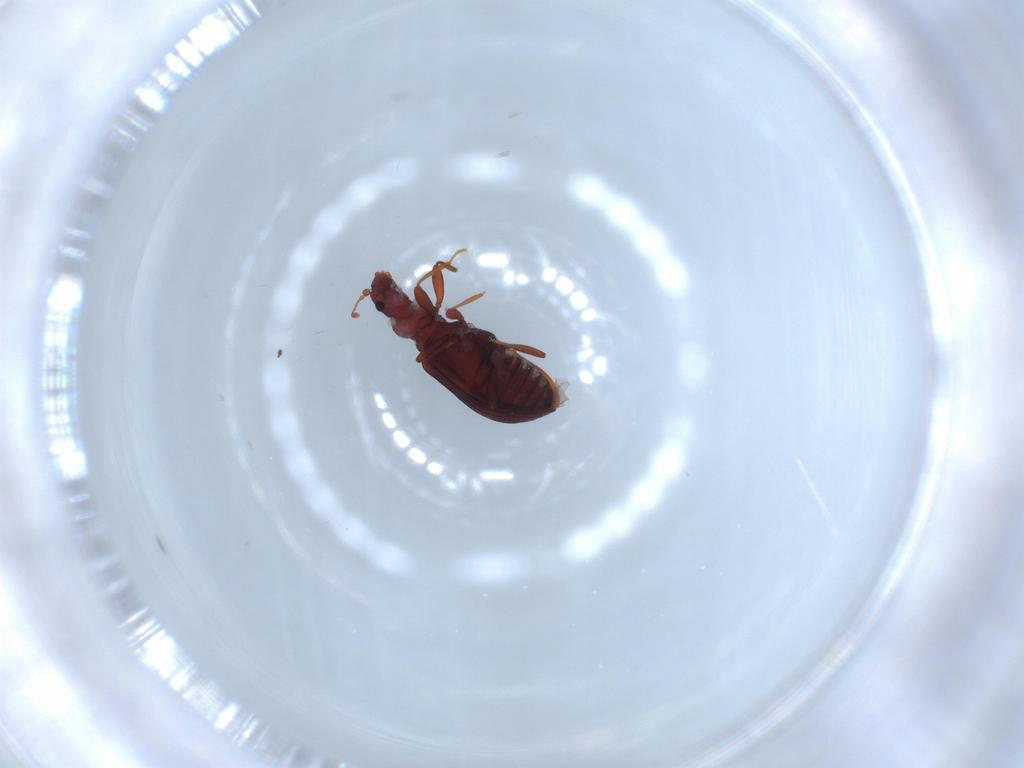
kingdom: Animalia
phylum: Arthropoda
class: Insecta
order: Coleoptera
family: Latridiidae
